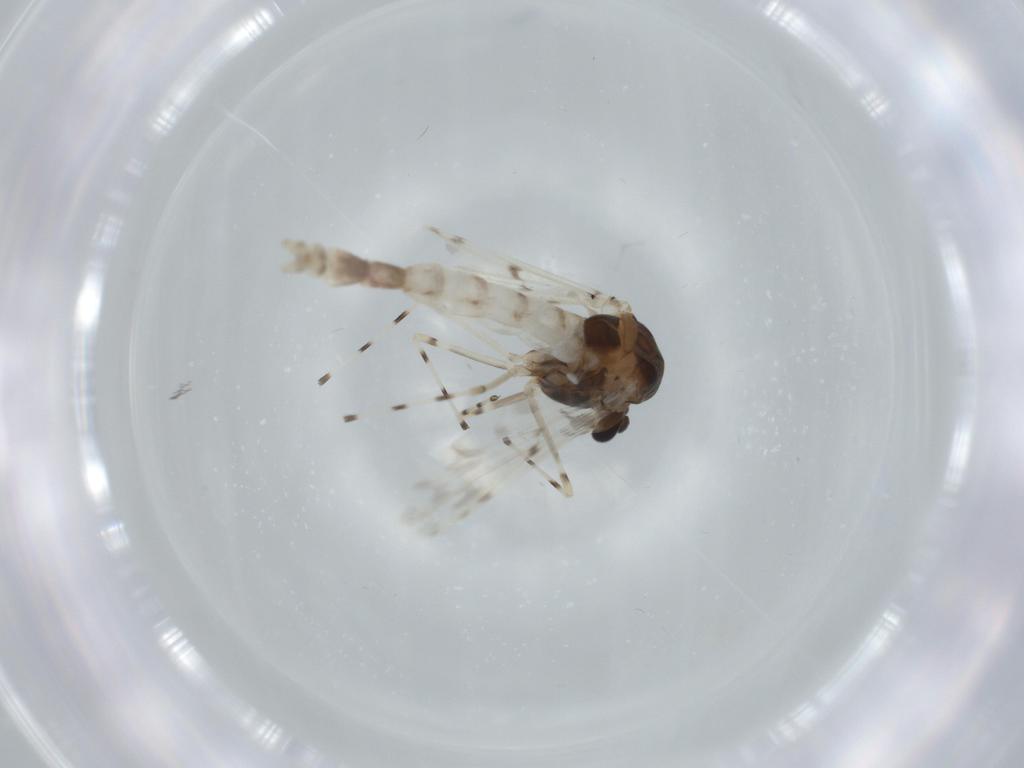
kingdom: Animalia
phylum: Arthropoda
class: Insecta
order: Diptera
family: Chironomidae
